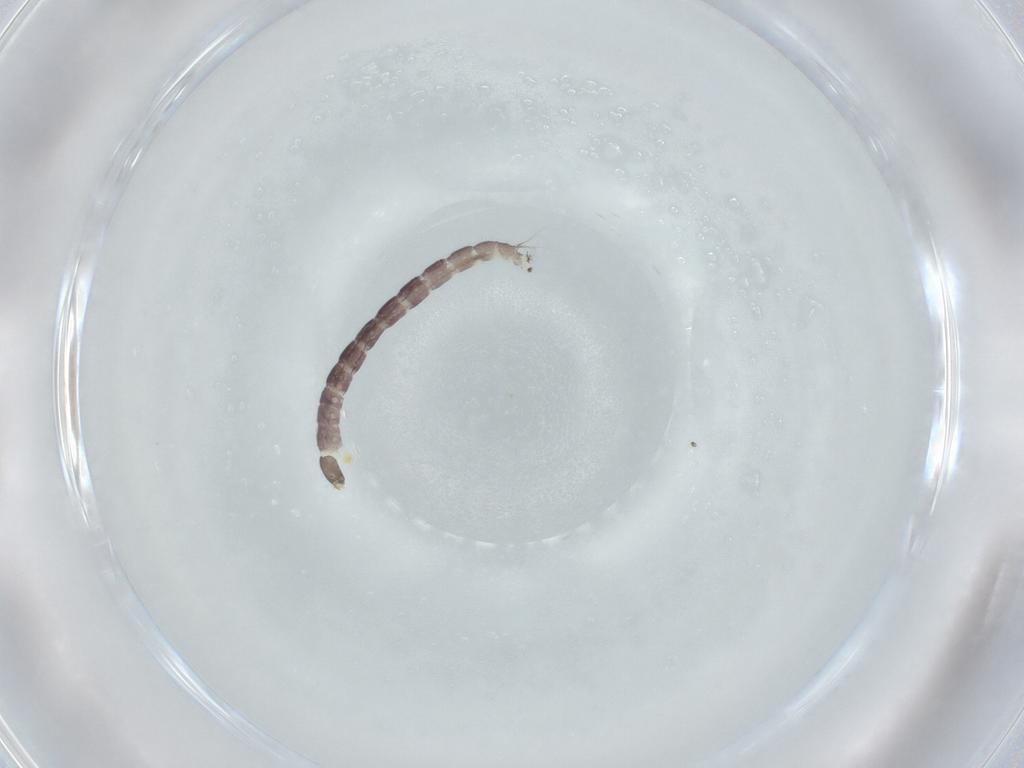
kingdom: Animalia
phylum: Arthropoda
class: Insecta
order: Diptera
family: Chironomidae
